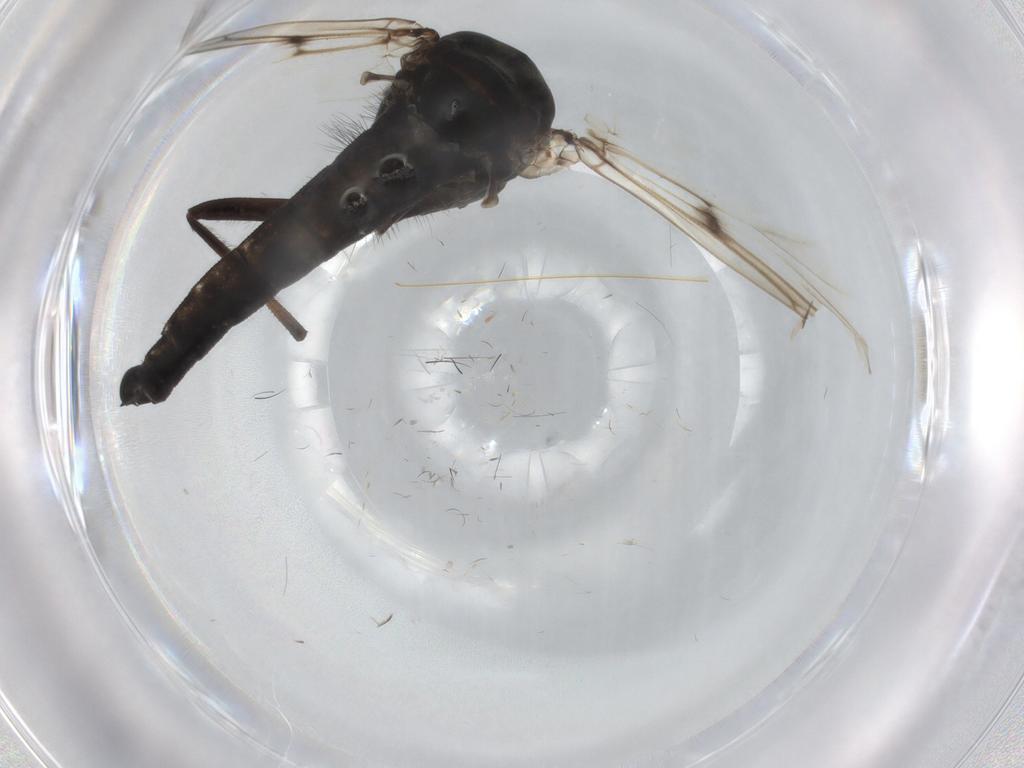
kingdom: Animalia
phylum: Arthropoda
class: Insecta
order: Diptera
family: Chironomidae
